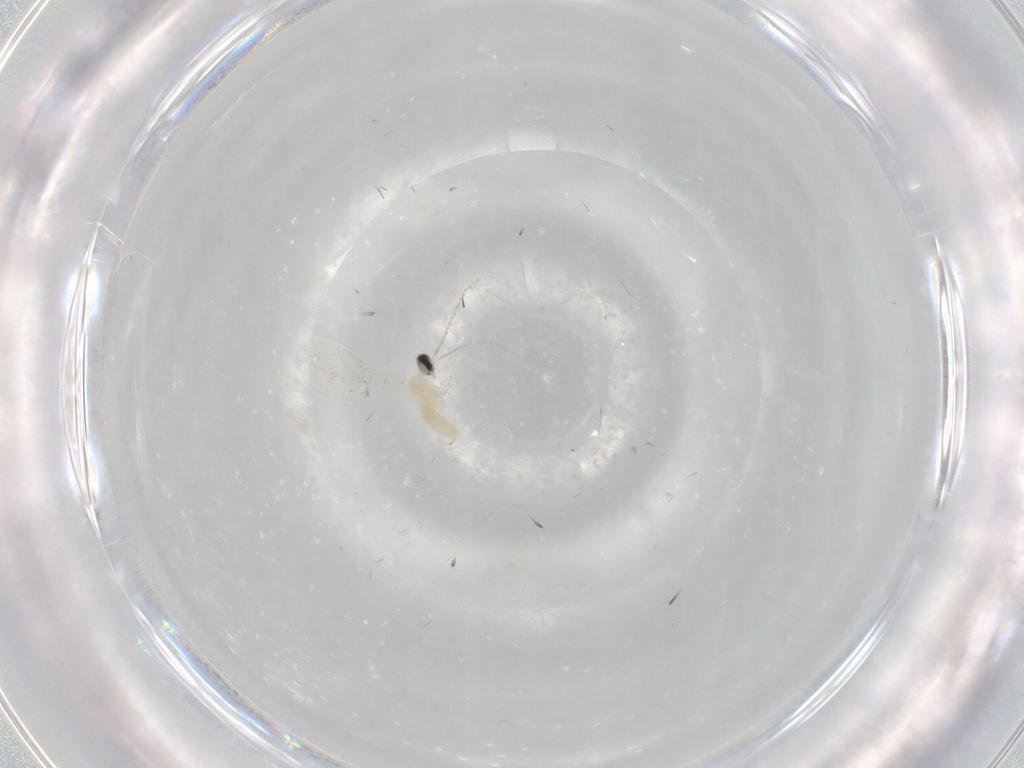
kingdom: Animalia
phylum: Arthropoda
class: Insecta
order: Diptera
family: Cecidomyiidae
